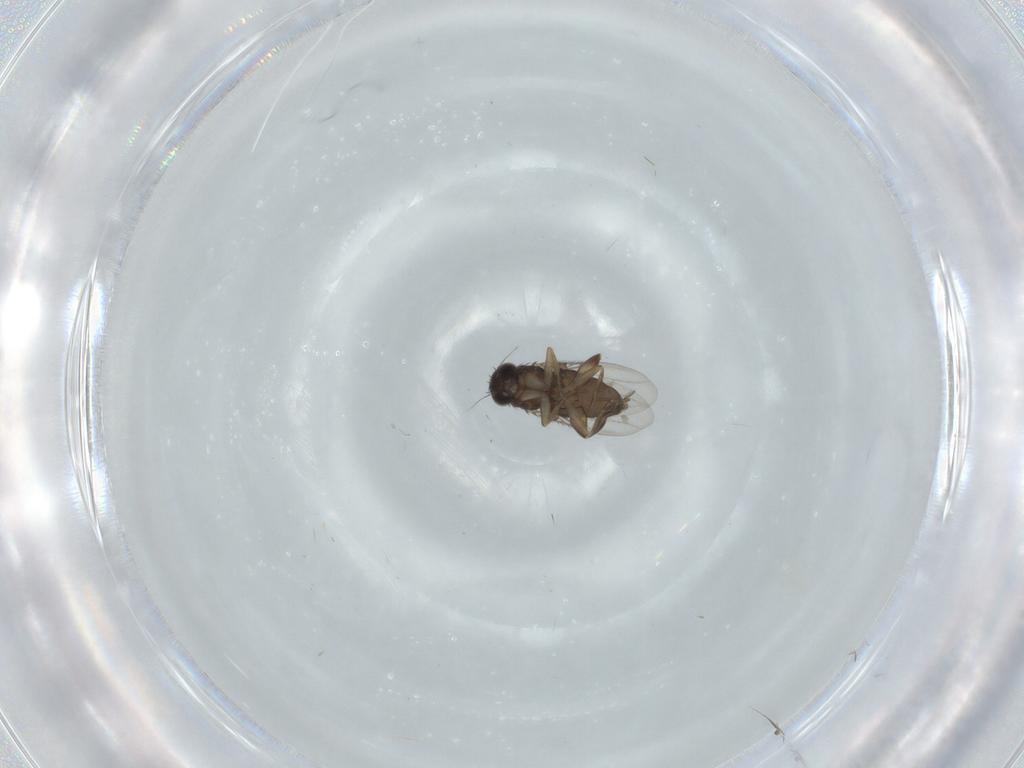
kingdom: Animalia
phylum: Arthropoda
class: Insecta
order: Diptera
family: Phoridae
